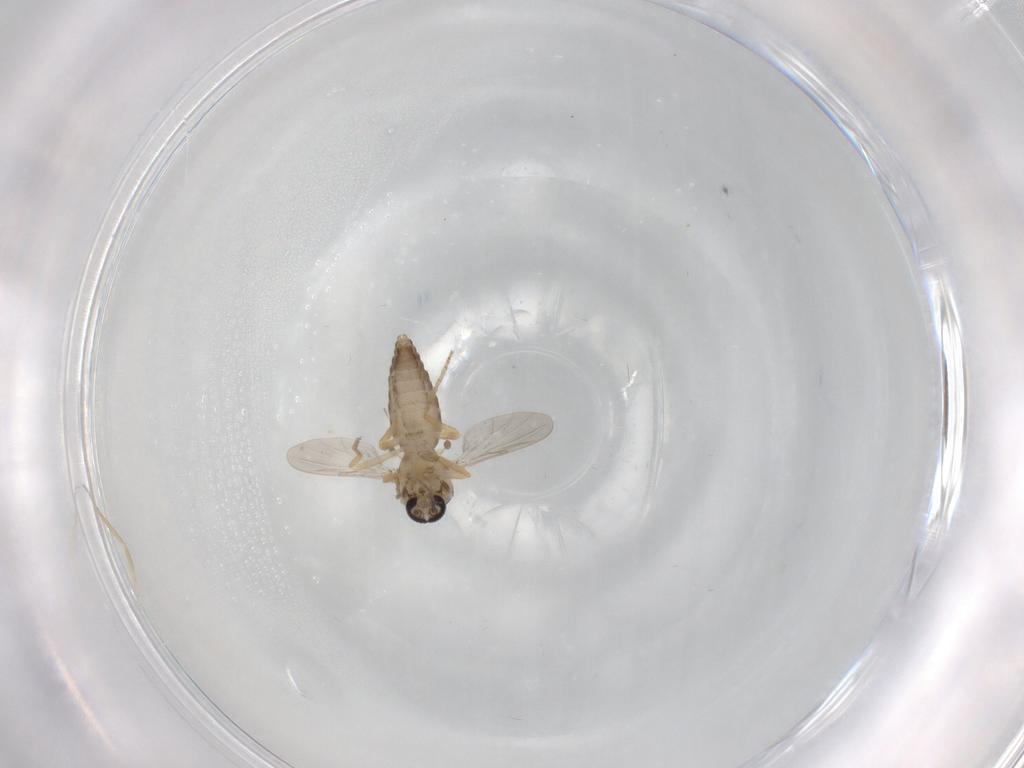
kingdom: Animalia
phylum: Arthropoda
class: Insecta
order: Diptera
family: Ceratopogonidae
